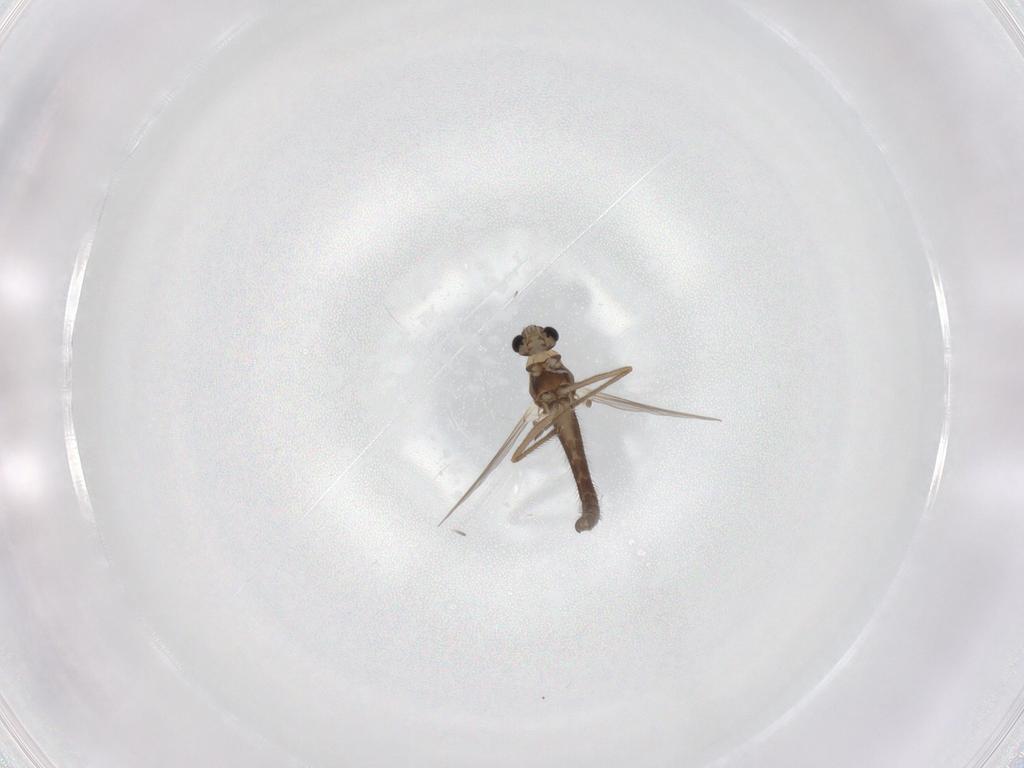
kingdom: Animalia
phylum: Arthropoda
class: Insecta
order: Diptera
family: Chironomidae
